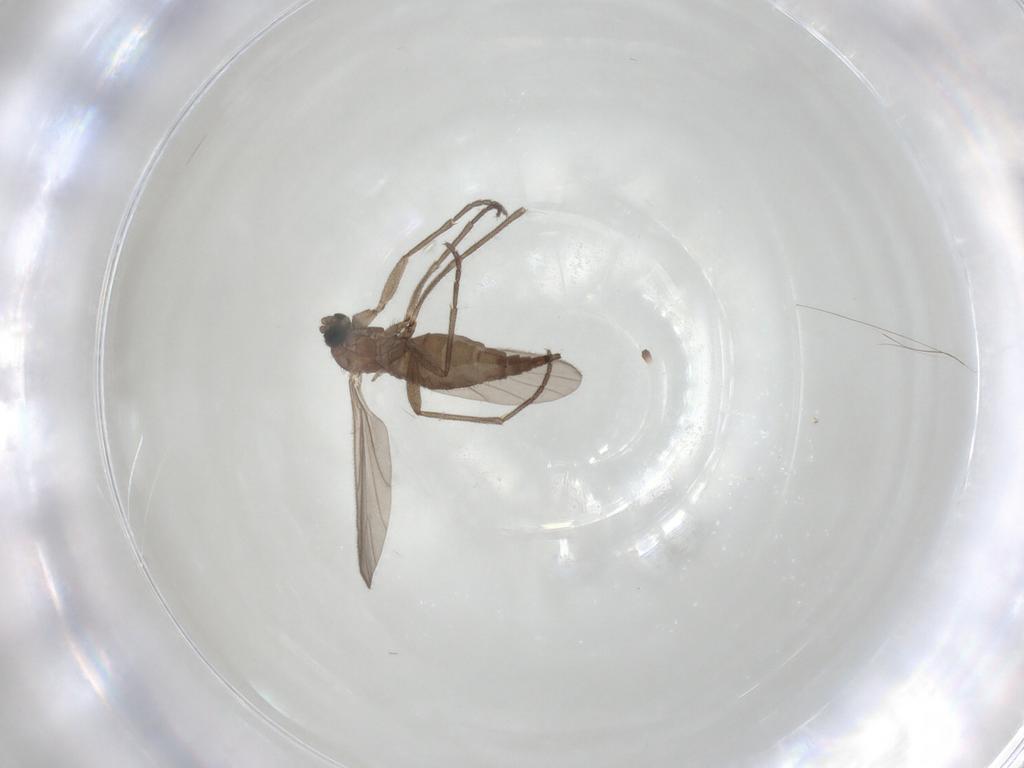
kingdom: Animalia
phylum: Arthropoda
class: Insecta
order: Diptera
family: Sciaridae
